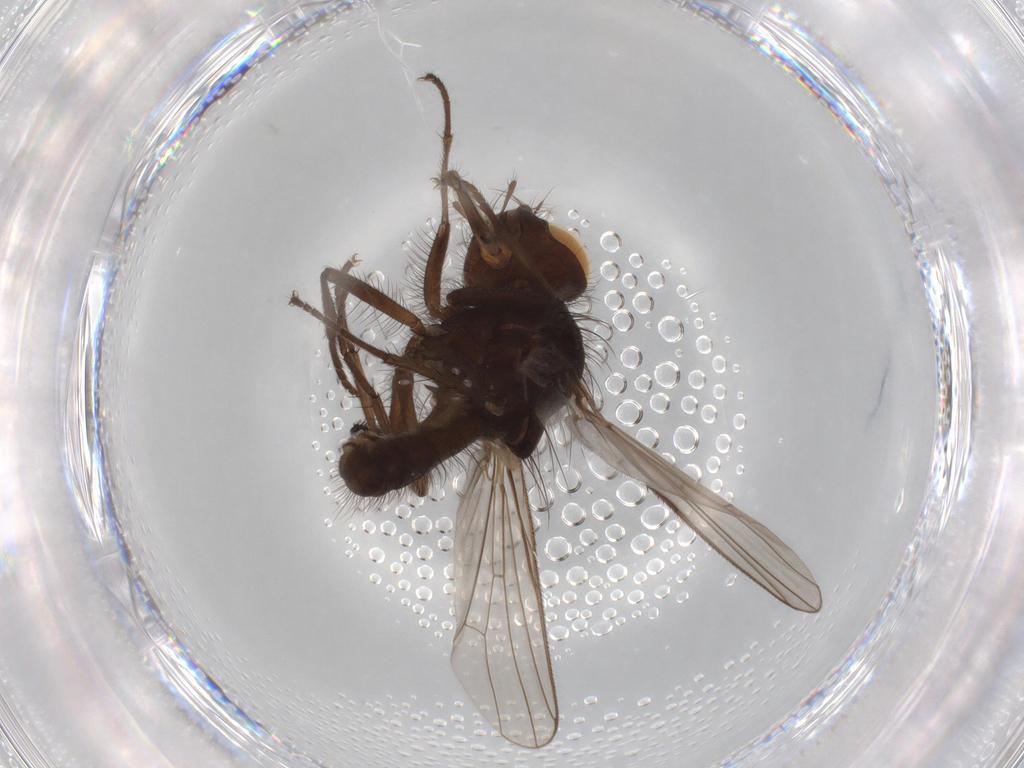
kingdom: Animalia
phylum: Arthropoda
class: Insecta
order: Diptera
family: Anthomyiidae
